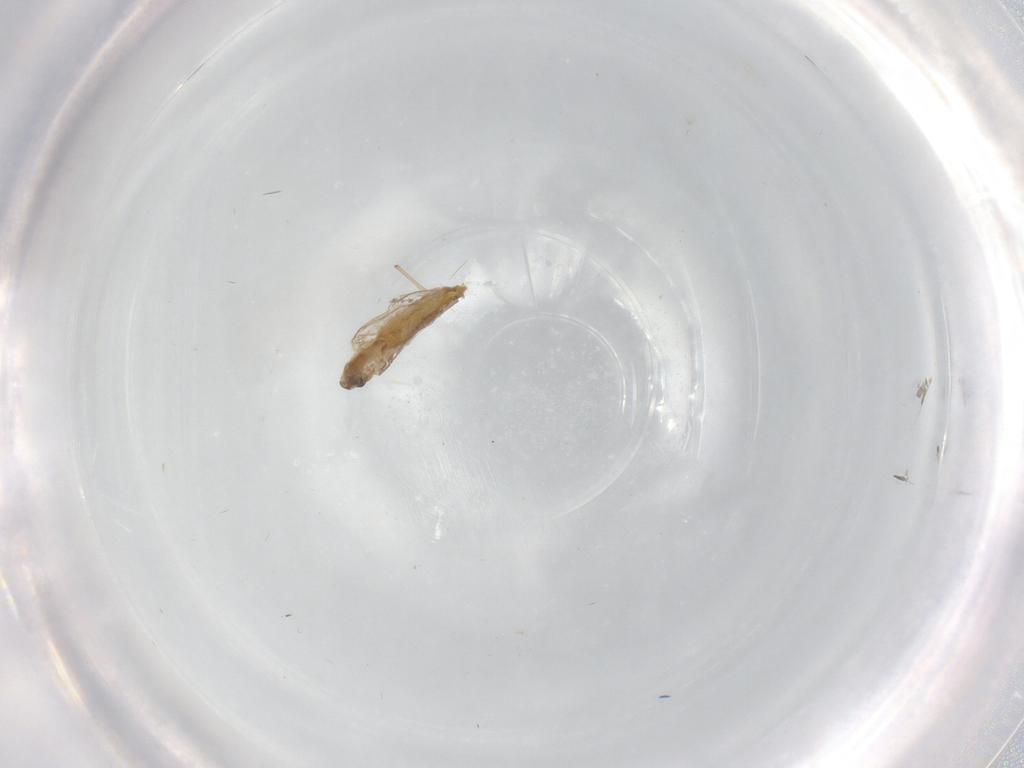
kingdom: Animalia
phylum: Arthropoda
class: Insecta
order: Diptera
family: Cecidomyiidae
